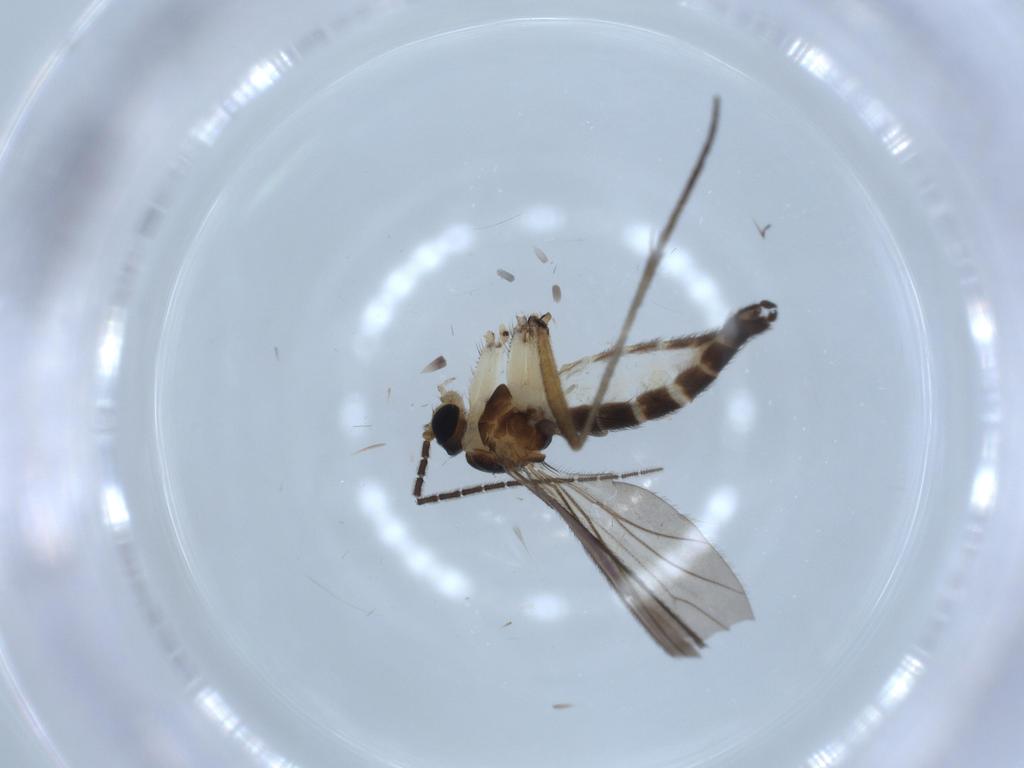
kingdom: Animalia
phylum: Arthropoda
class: Insecta
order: Diptera
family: Sciaridae
